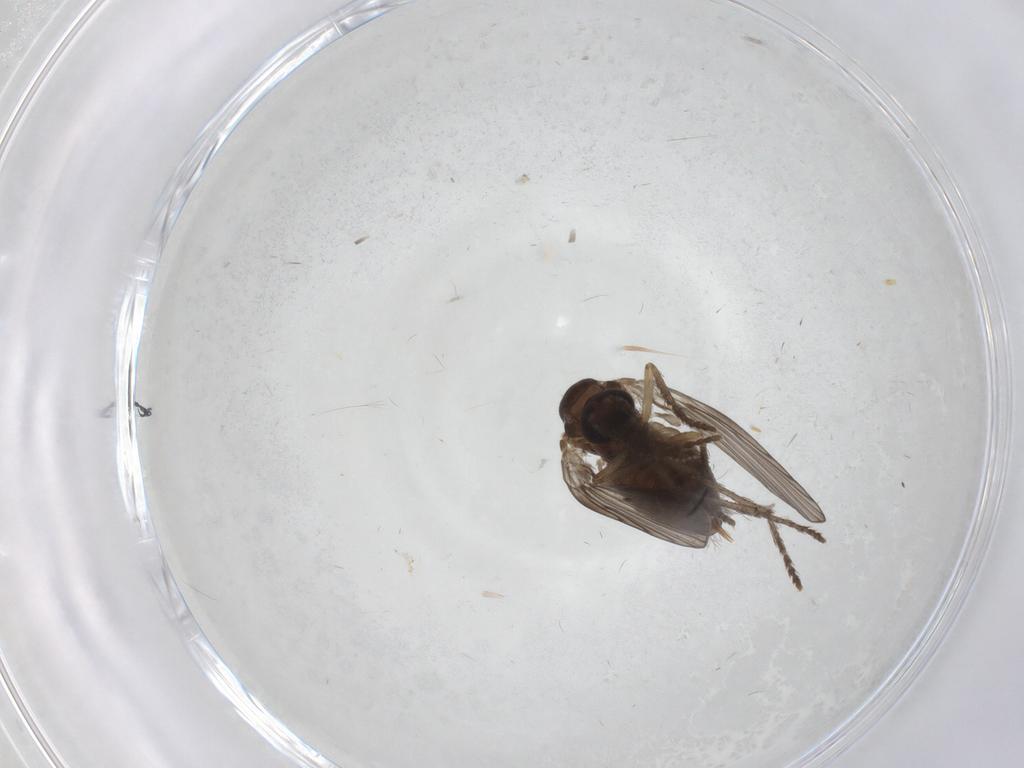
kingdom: Animalia
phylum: Arthropoda
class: Insecta
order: Diptera
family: Psychodidae
